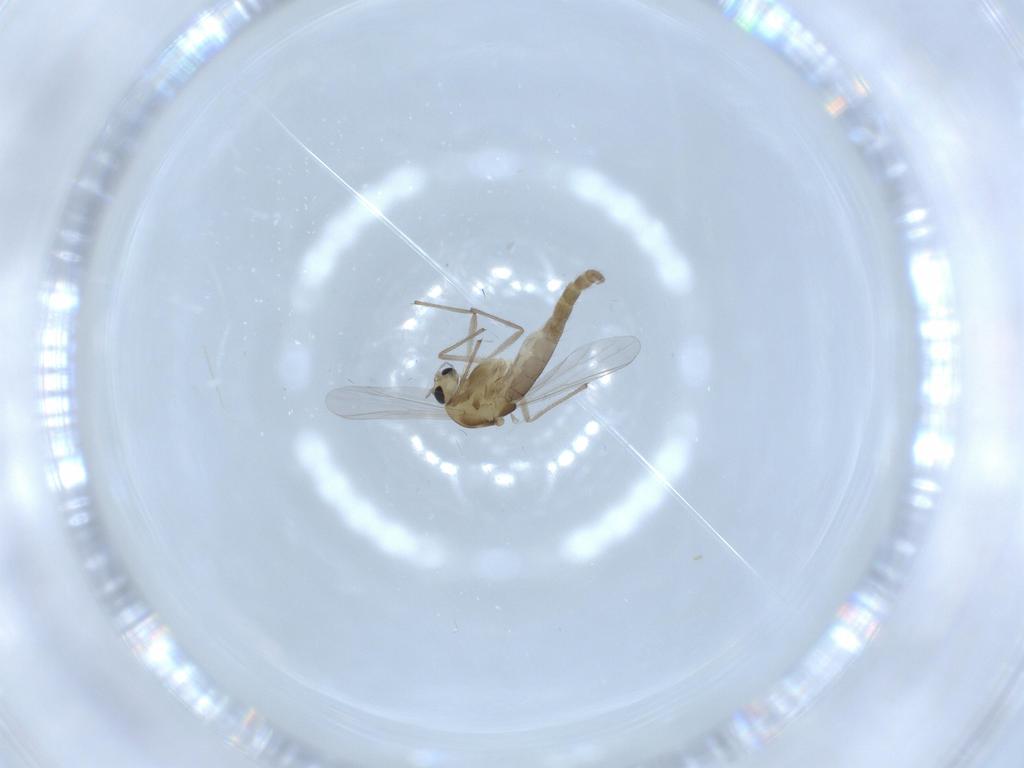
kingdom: Animalia
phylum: Arthropoda
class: Insecta
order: Diptera
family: Chironomidae
